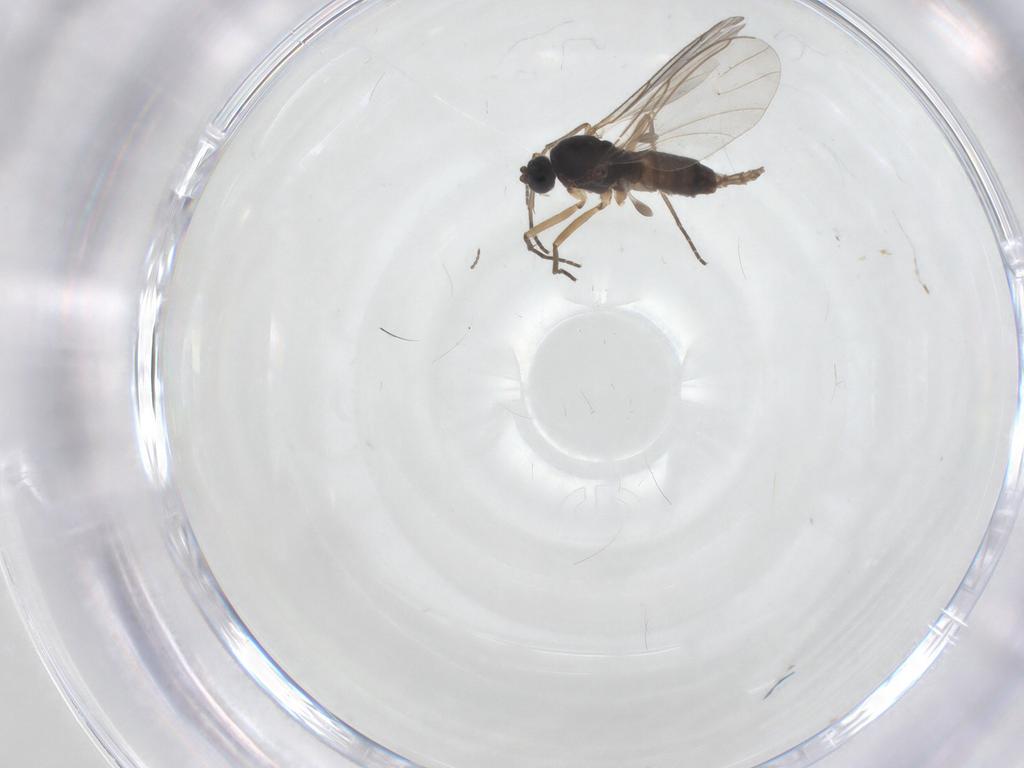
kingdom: Animalia
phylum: Arthropoda
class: Insecta
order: Diptera
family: Sciaridae
